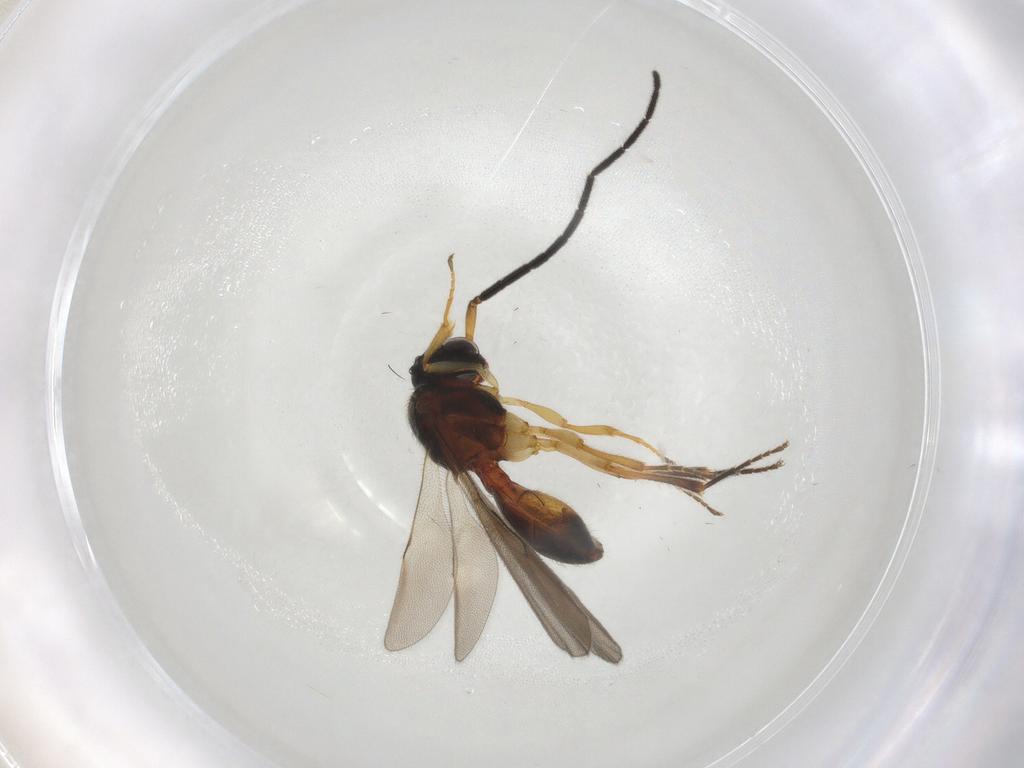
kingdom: Animalia
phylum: Arthropoda
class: Insecta
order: Hymenoptera
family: Scelionidae
